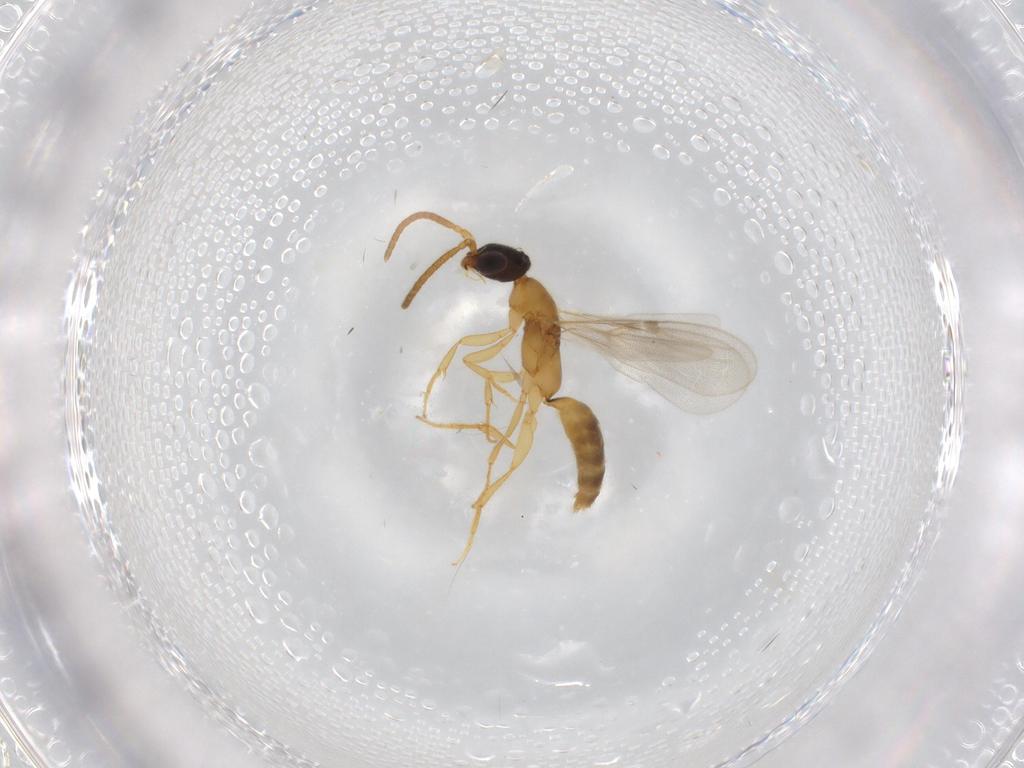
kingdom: Animalia
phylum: Arthropoda
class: Insecta
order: Hymenoptera
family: Bethylidae
